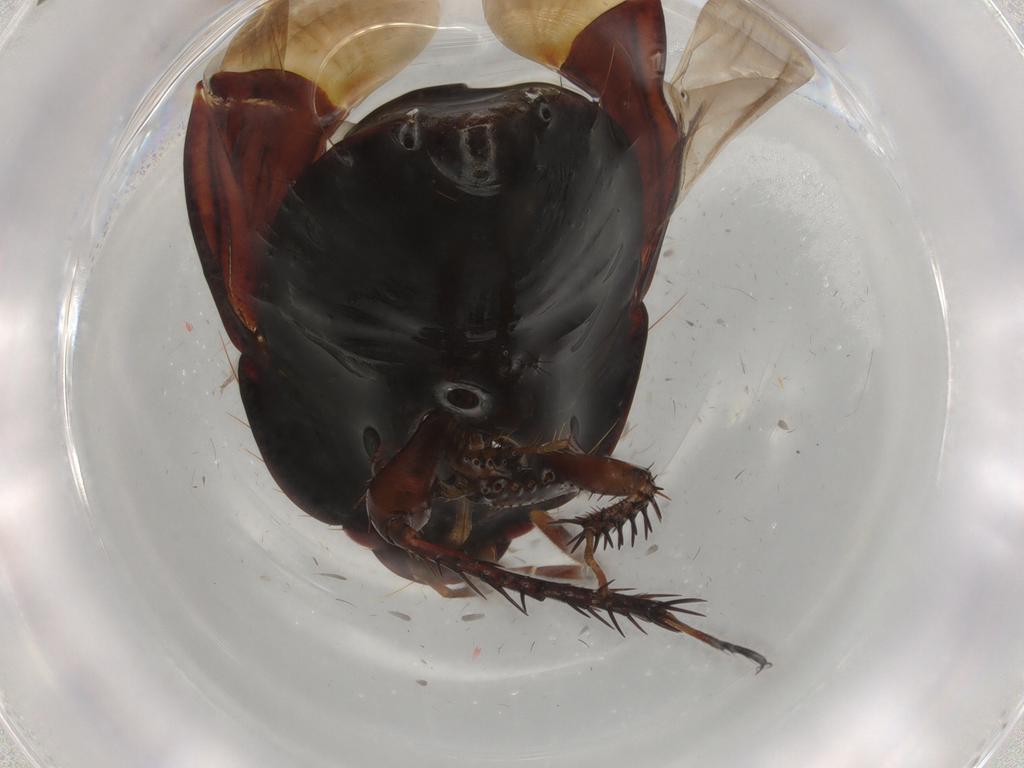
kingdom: Animalia
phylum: Arthropoda
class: Insecta
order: Hemiptera
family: Cydnidae
